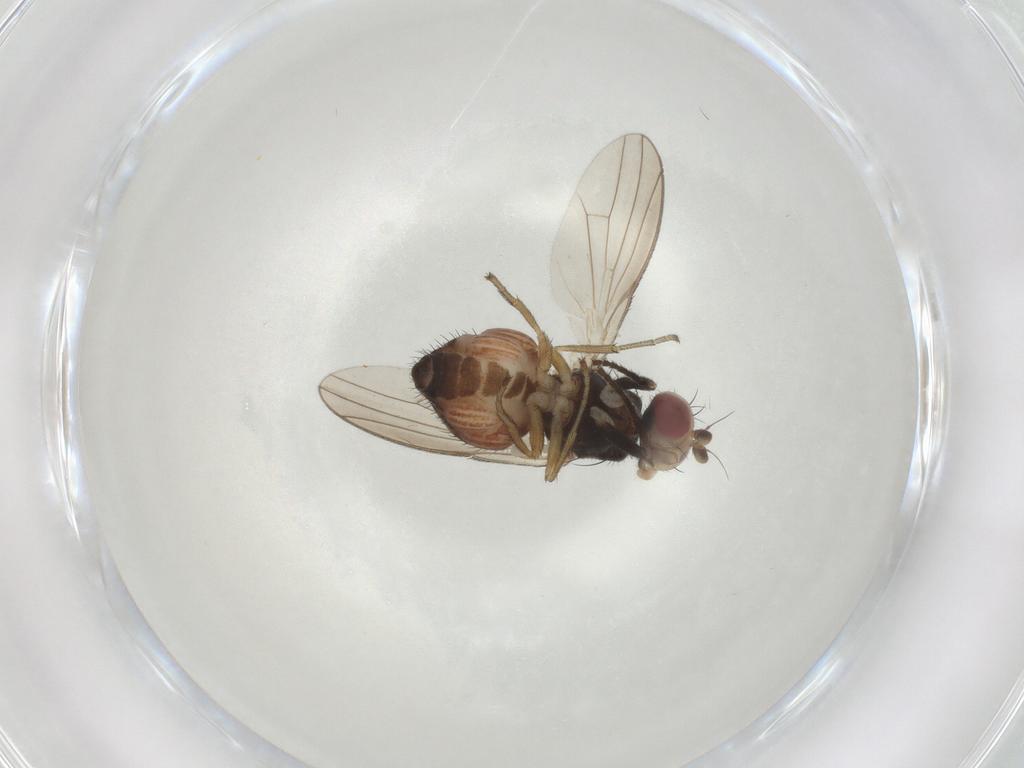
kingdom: Animalia
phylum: Arthropoda
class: Insecta
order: Diptera
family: Heleomyzidae
